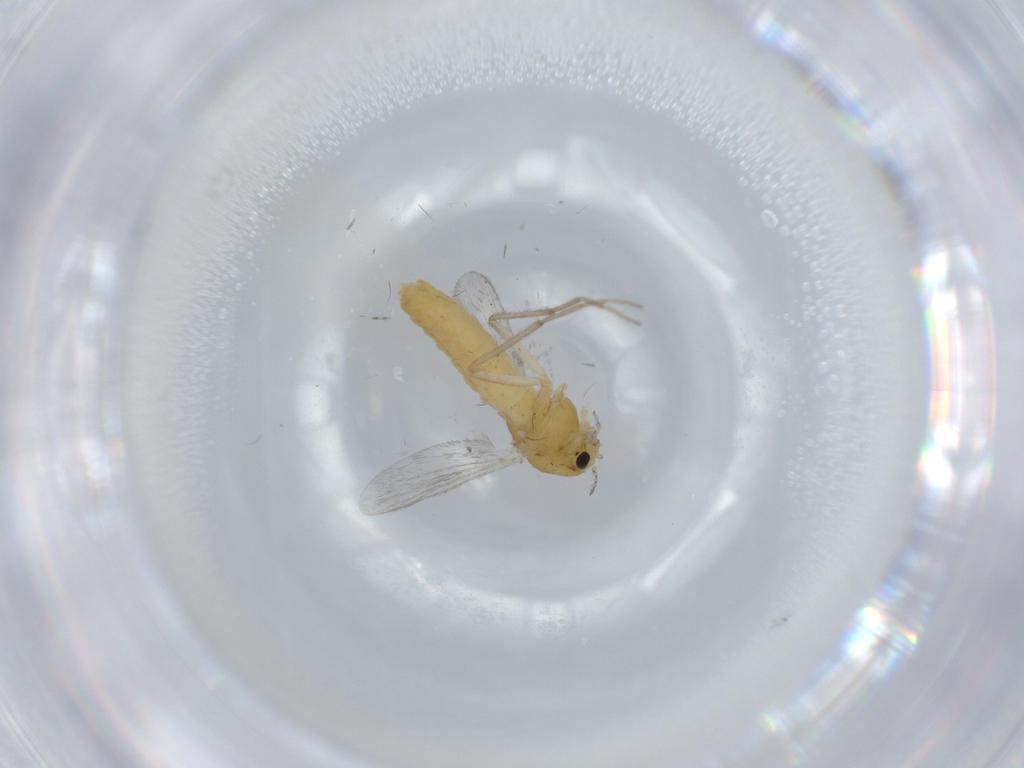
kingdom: Animalia
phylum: Arthropoda
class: Insecta
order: Diptera
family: Chironomidae
